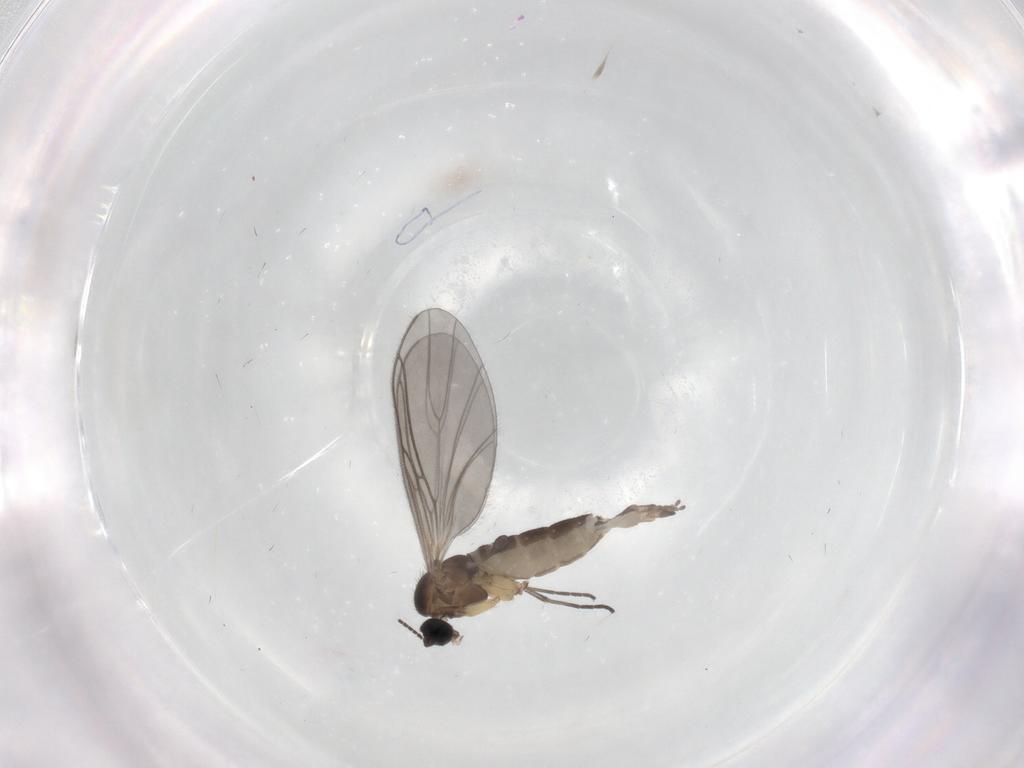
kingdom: Animalia
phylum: Arthropoda
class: Insecta
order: Diptera
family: Sciaridae
